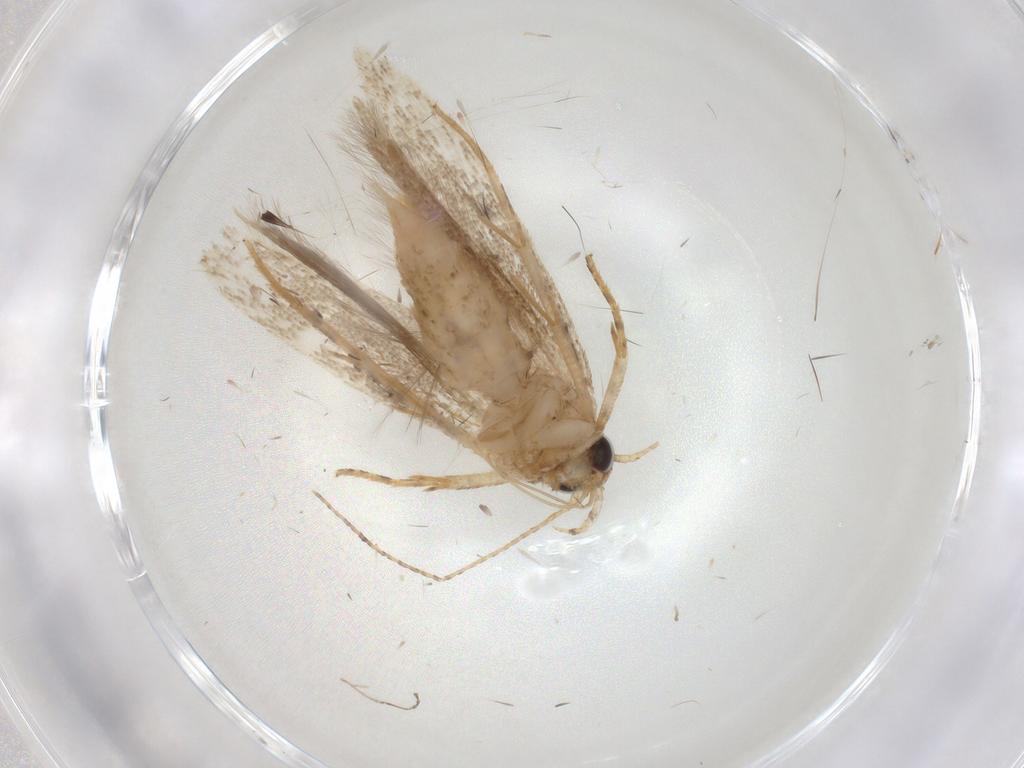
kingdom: Animalia
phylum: Arthropoda
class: Insecta
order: Lepidoptera
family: Gelechiidae
